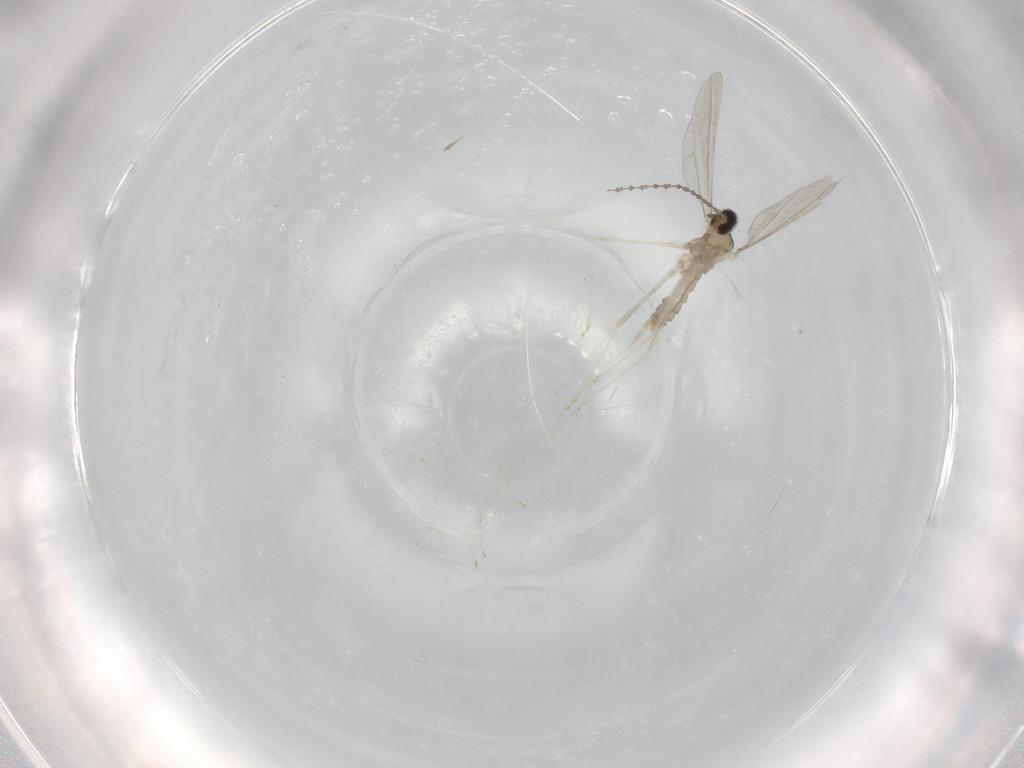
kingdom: Animalia
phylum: Arthropoda
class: Insecta
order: Diptera
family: Cecidomyiidae
